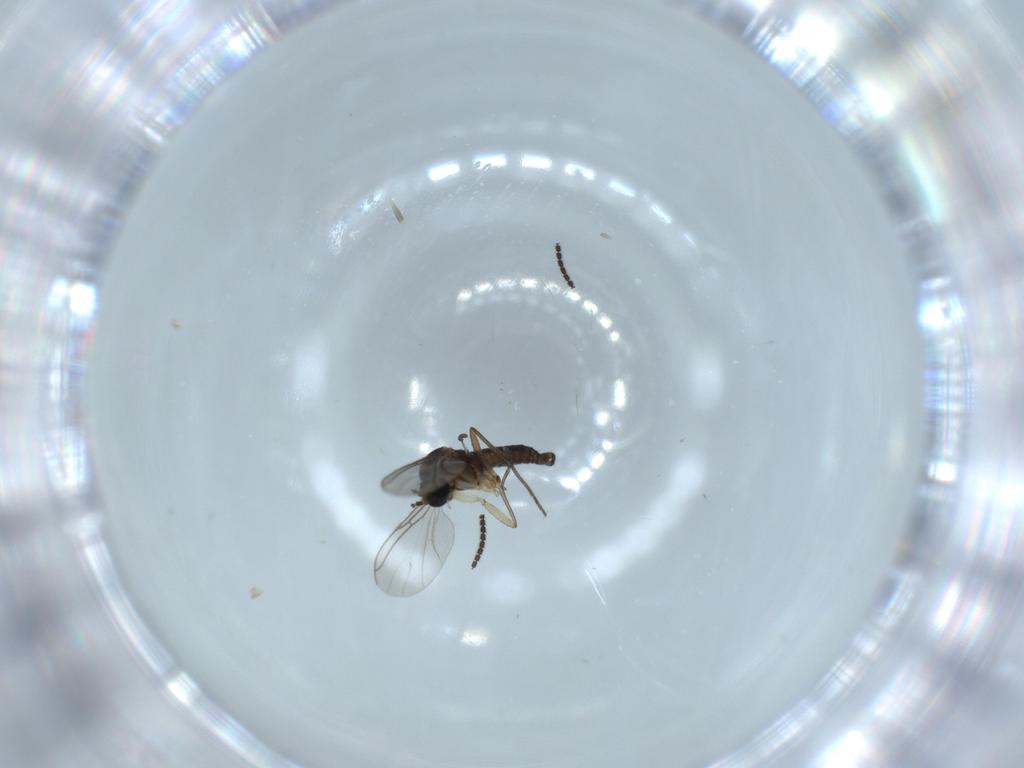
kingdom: Animalia
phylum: Arthropoda
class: Insecta
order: Diptera
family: Sciaridae
